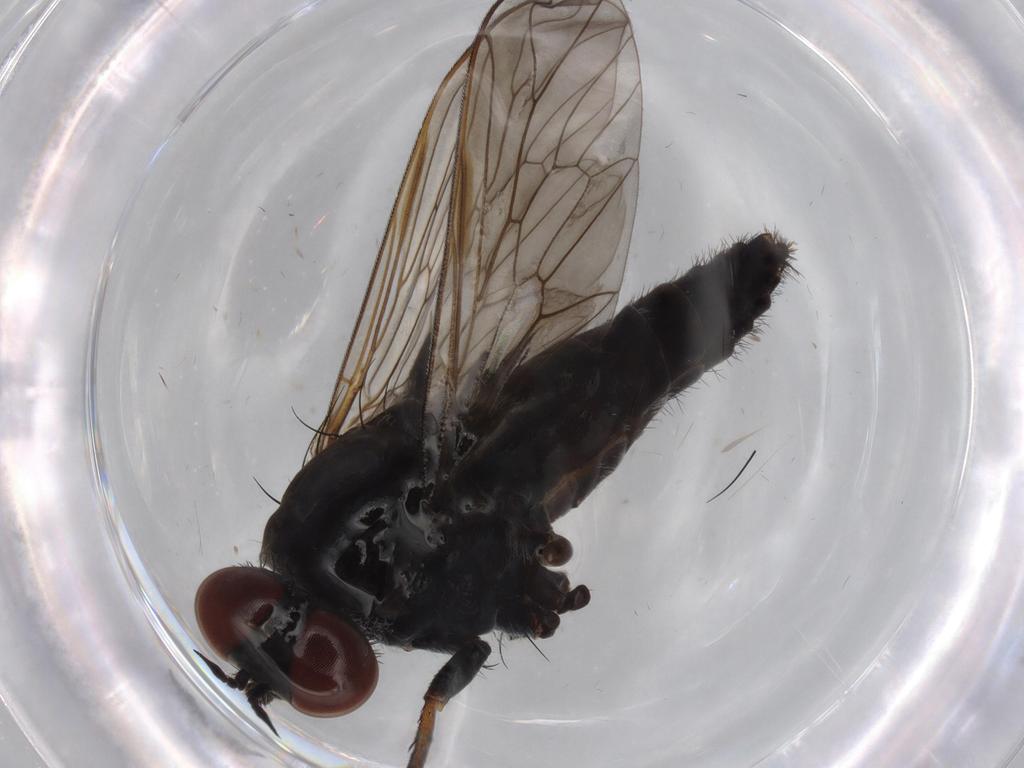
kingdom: Animalia
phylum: Arthropoda
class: Insecta
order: Diptera
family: Sciaridae
